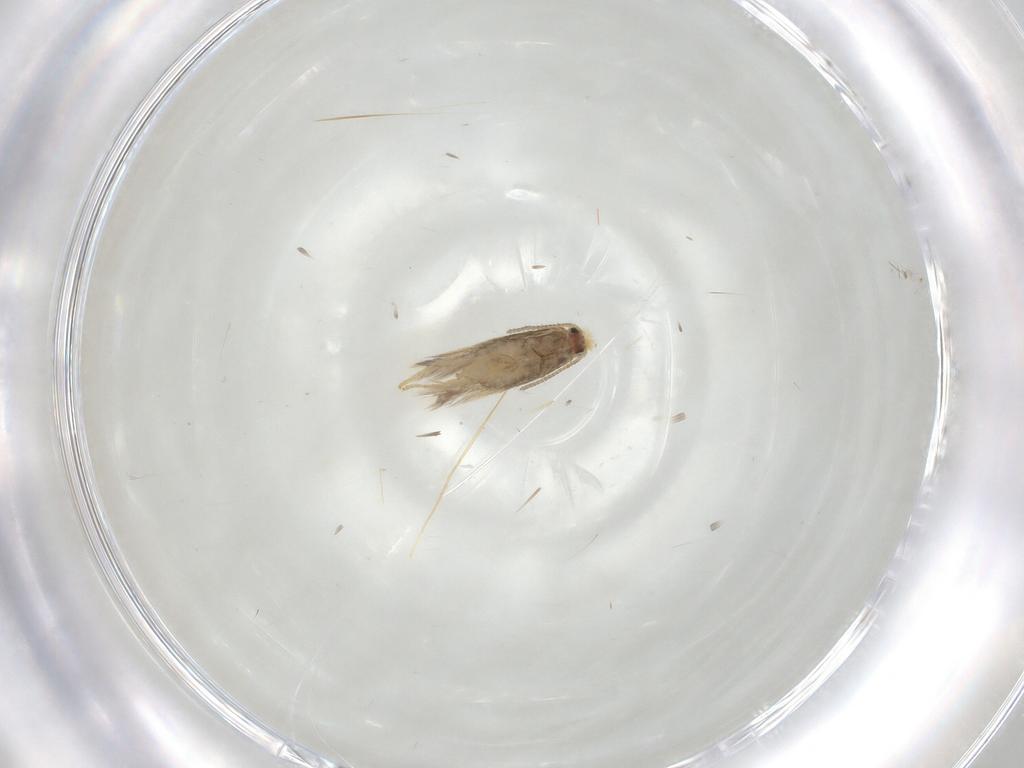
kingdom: Animalia
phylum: Arthropoda
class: Insecta
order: Lepidoptera
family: Nepticulidae
